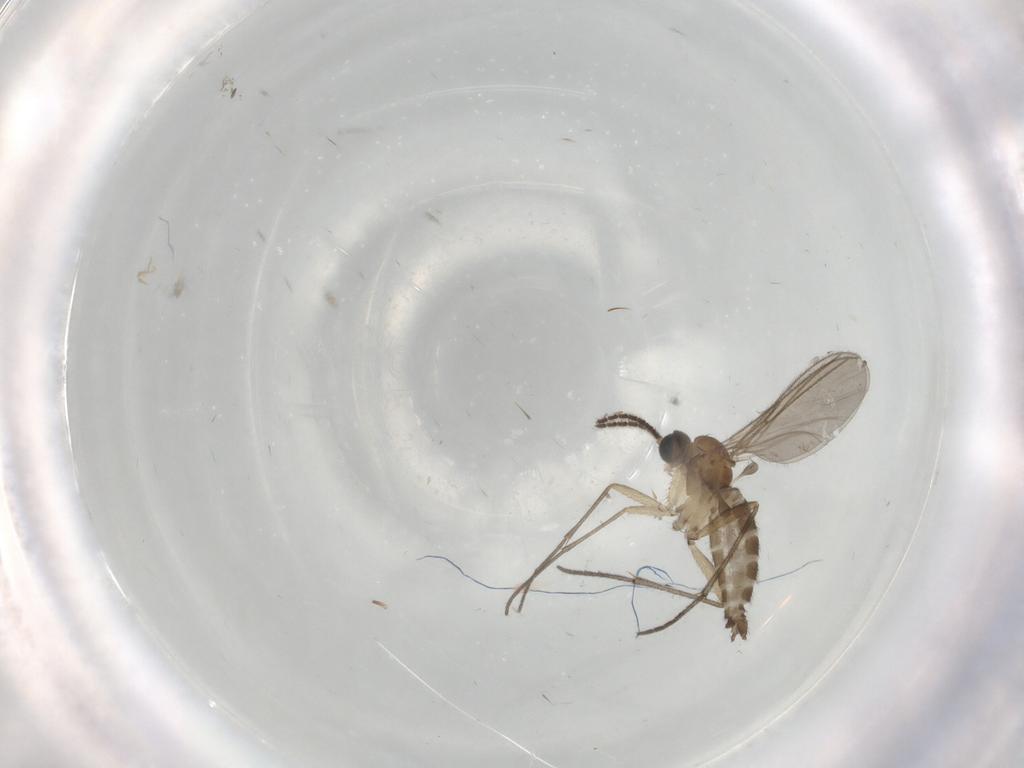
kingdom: Animalia
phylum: Arthropoda
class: Insecta
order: Diptera
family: Sciaridae
